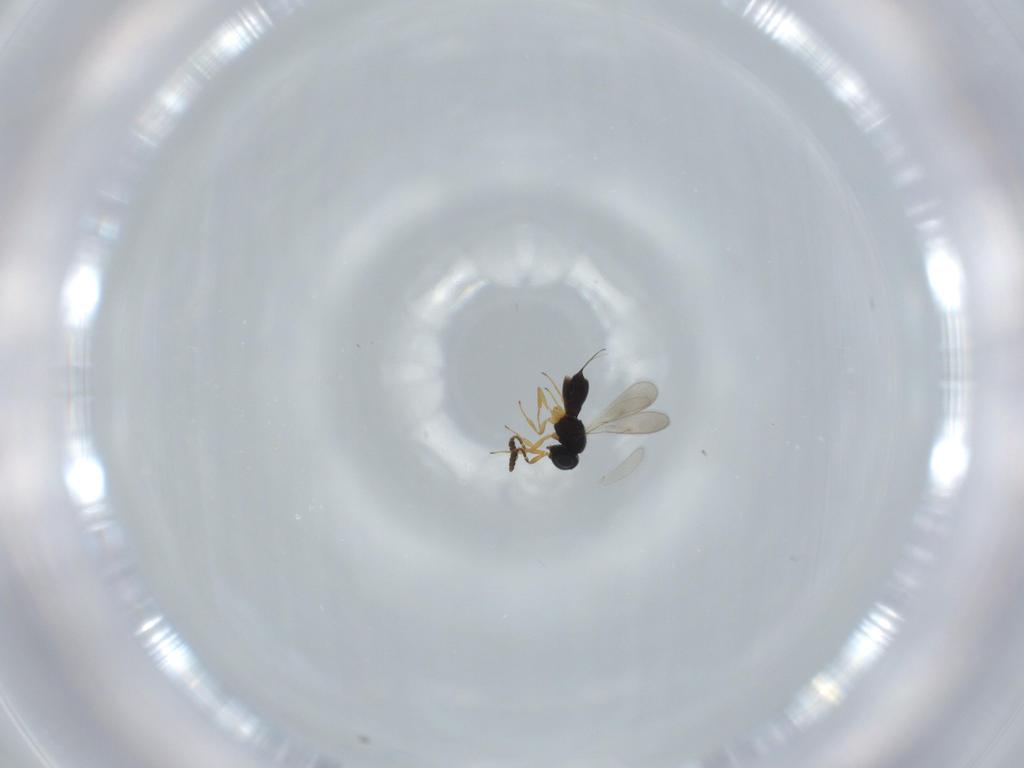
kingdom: Animalia
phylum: Arthropoda
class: Insecta
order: Hymenoptera
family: Scelionidae
